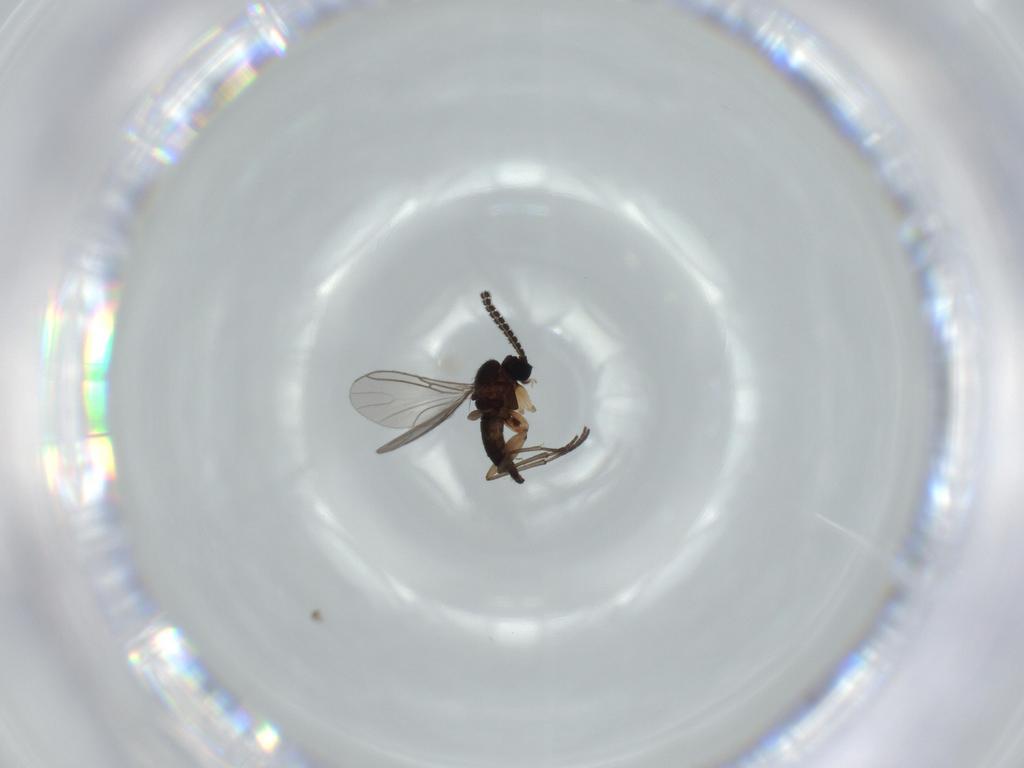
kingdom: Animalia
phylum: Arthropoda
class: Insecta
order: Diptera
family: Sciaridae
